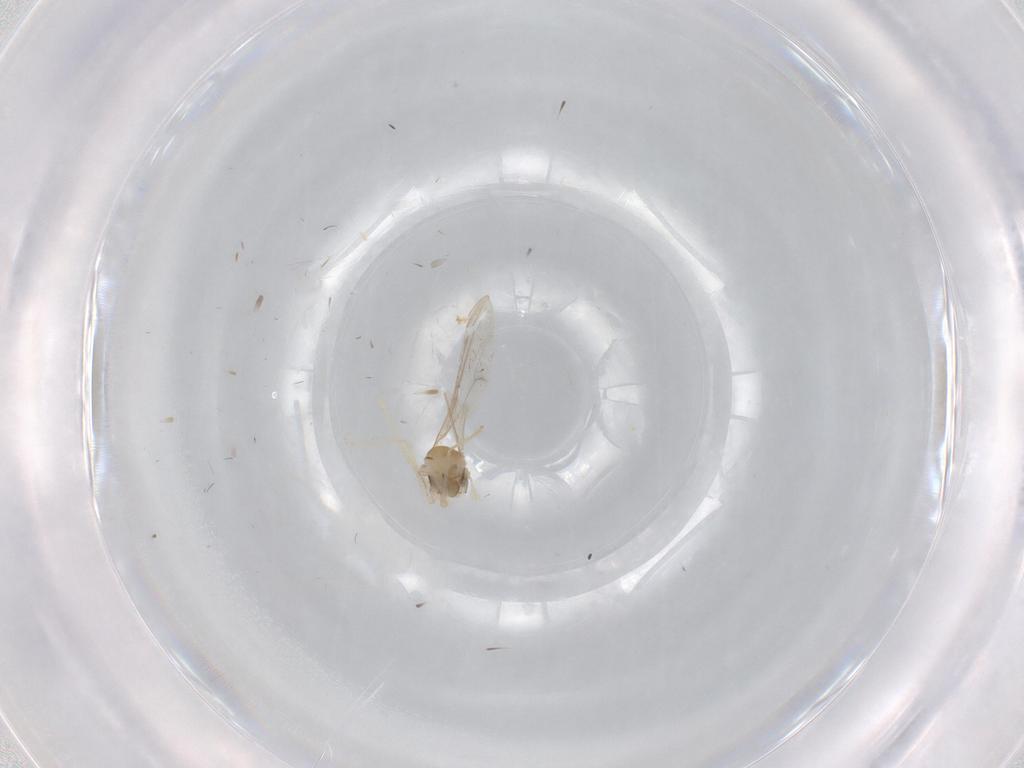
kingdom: Animalia
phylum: Arthropoda
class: Insecta
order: Diptera
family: Cecidomyiidae
